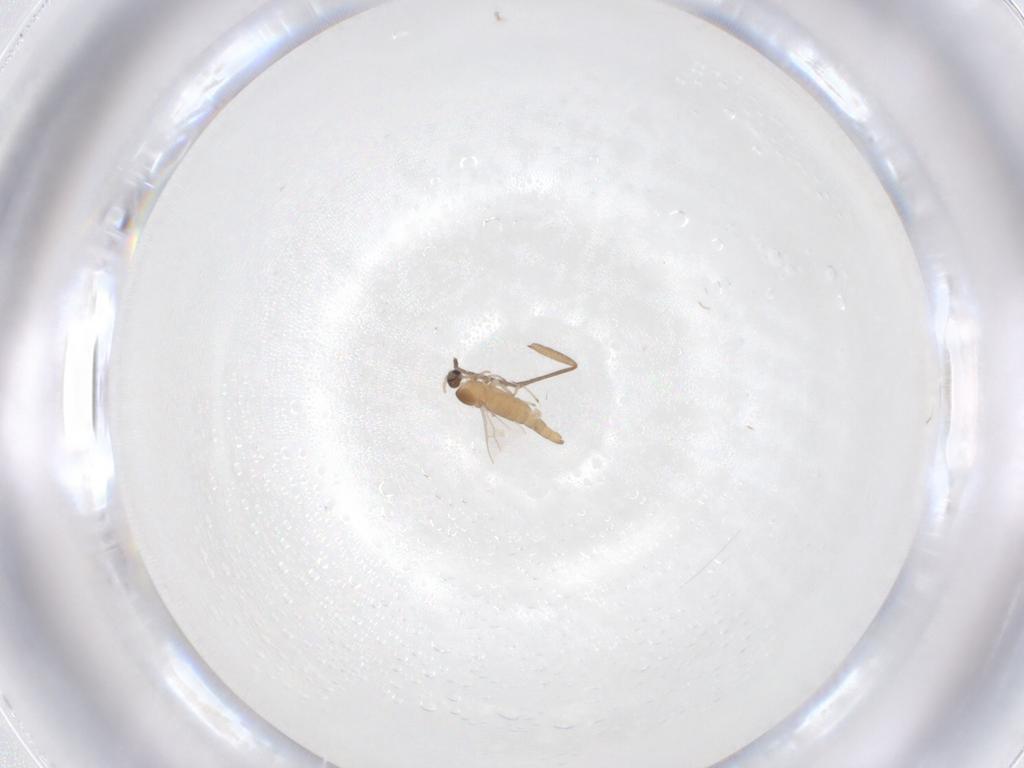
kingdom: Animalia
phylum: Arthropoda
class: Insecta
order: Diptera
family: Cecidomyiidae
